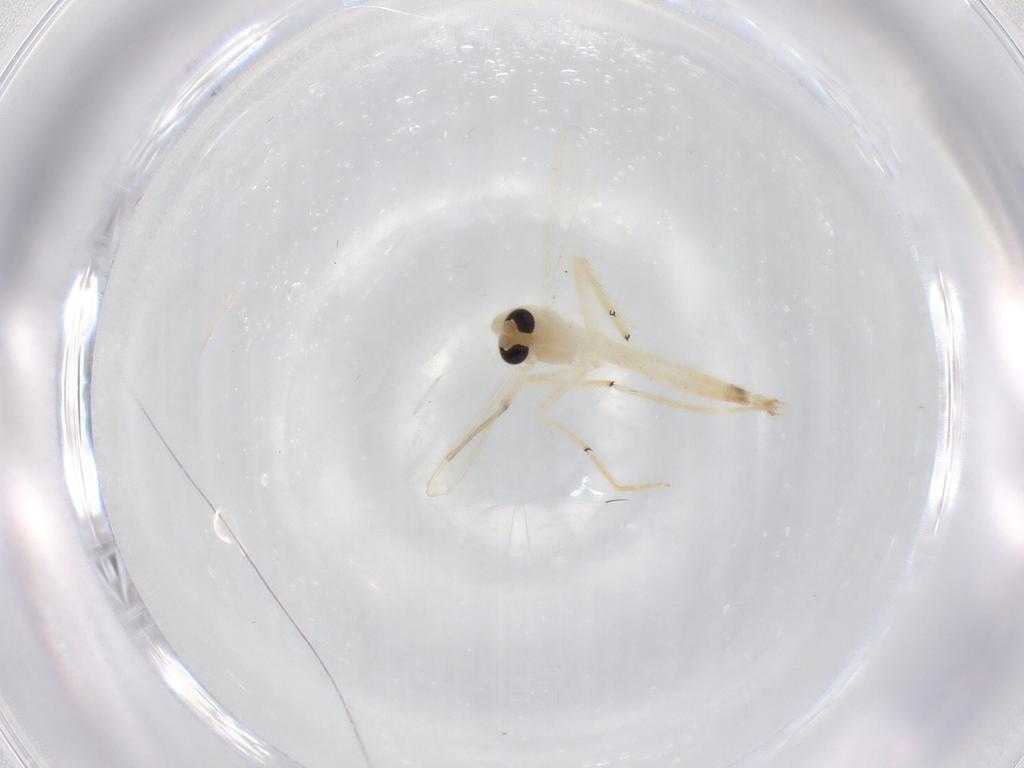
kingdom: Animalia
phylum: Arthropoda
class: Insecta
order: Diptera
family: Chironomidae
